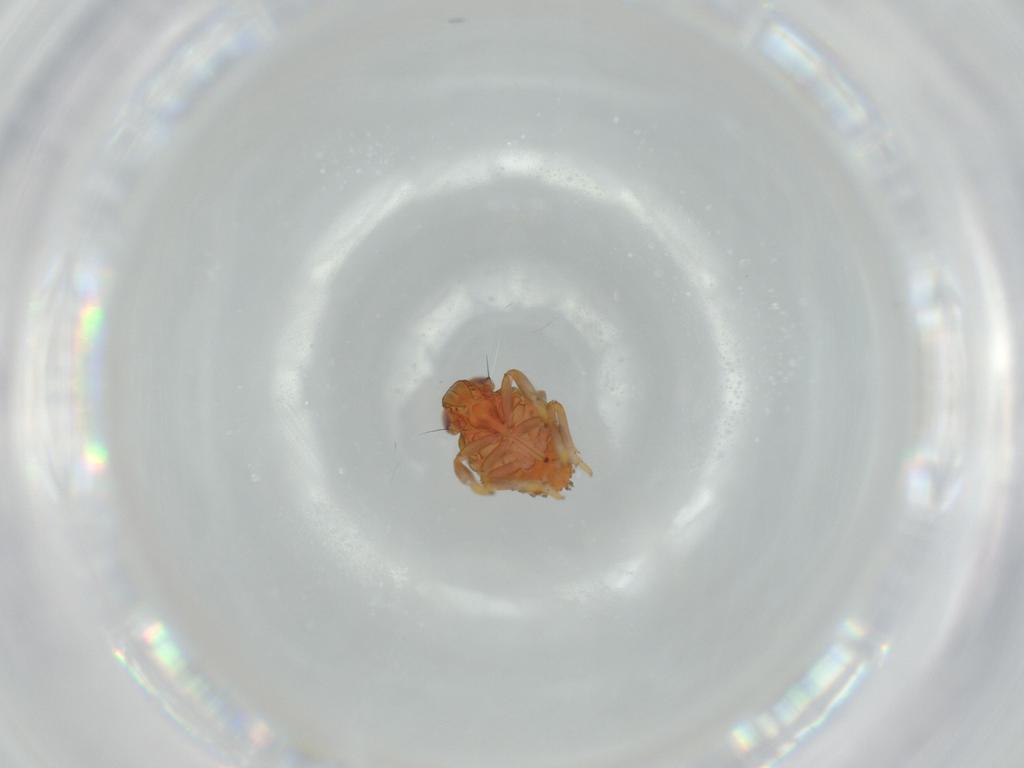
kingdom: Animalia
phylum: Arthropoda
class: Insecta
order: Hemiptera
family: Issidae
